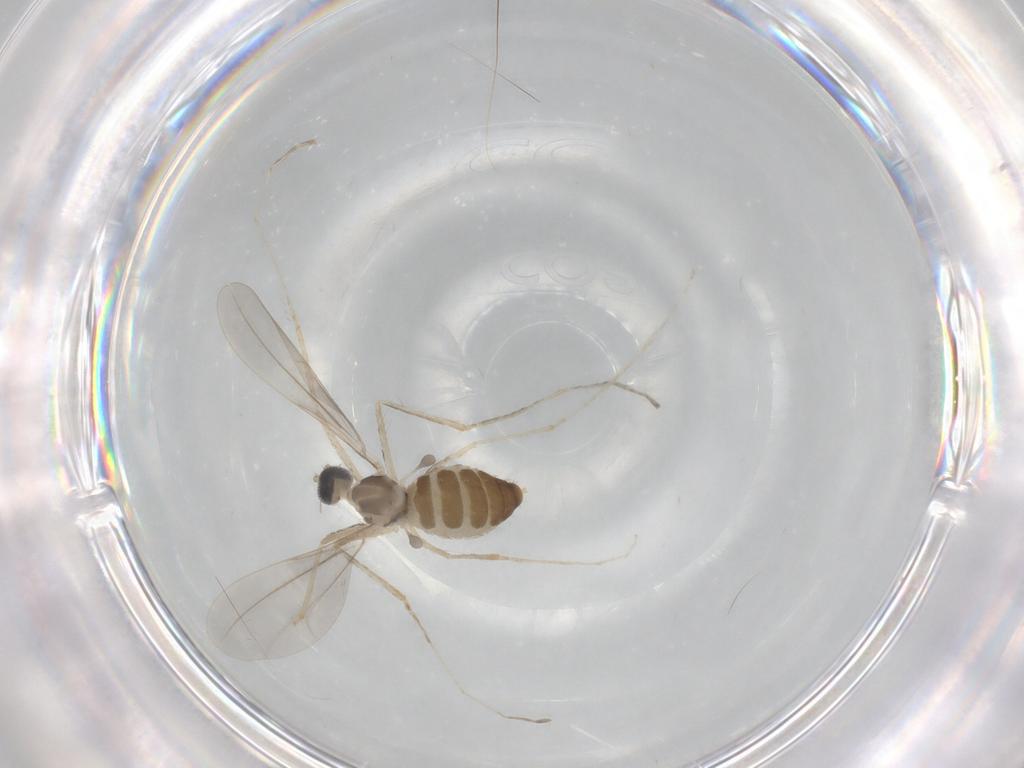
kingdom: Animalia
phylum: Arthropoda
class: Insecta
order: Diptera
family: Cecidomyiidae
